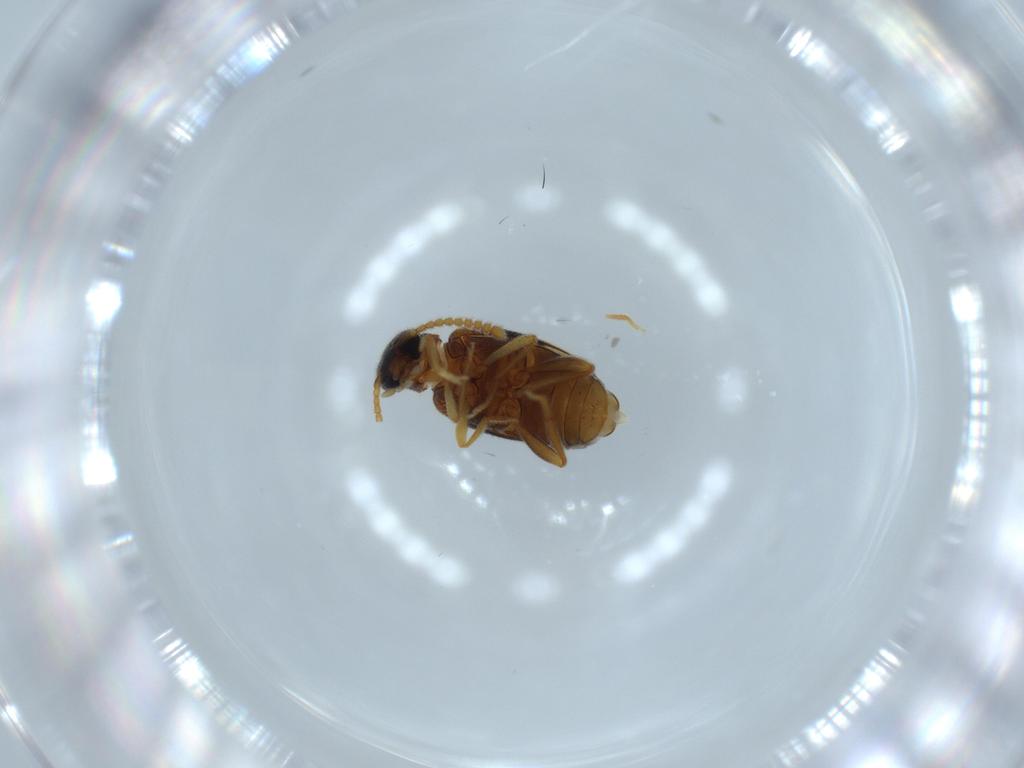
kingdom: Animalia
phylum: Arthropoda
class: Insecta
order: Coleoptera
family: Aderidae
